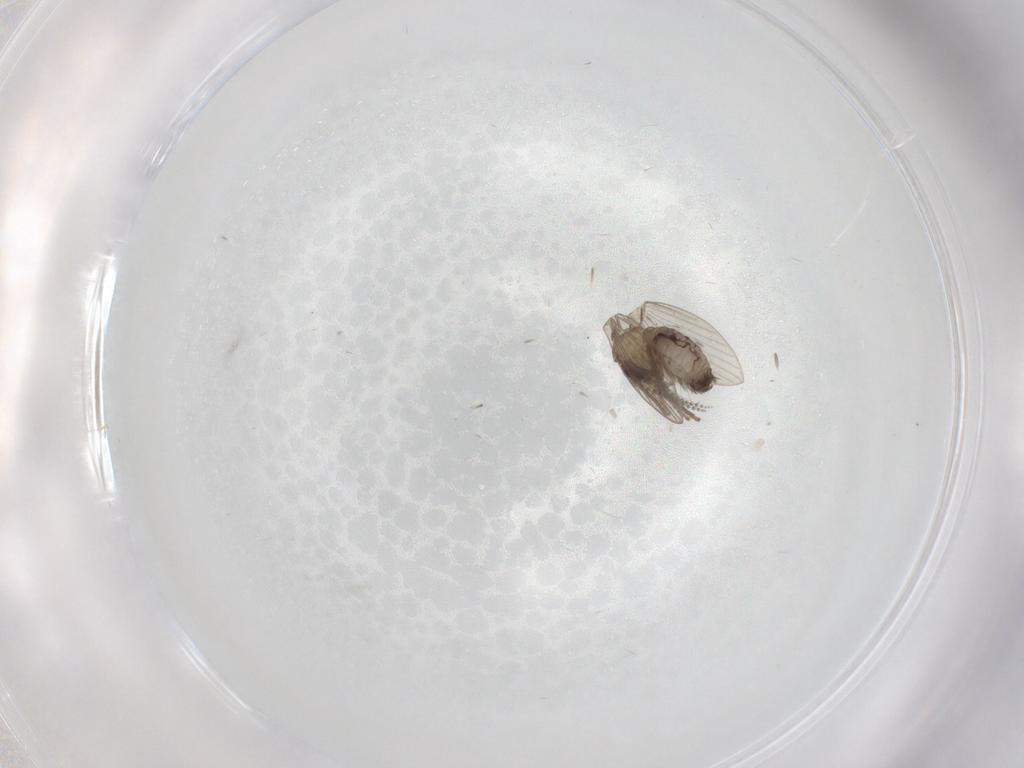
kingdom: Animalia
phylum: Arthropoda
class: Insecta
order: Diptera
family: Psychodidae
